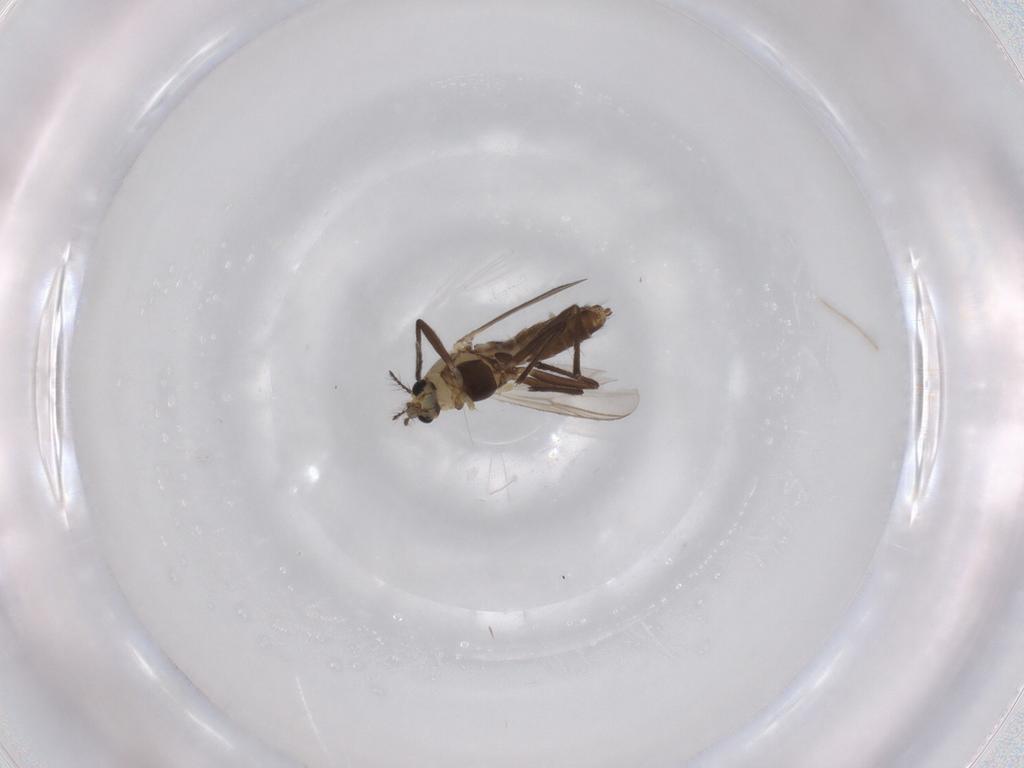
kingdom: Animalia
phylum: Arthropoda
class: Insecta
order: Diptera
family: Chironomidae
